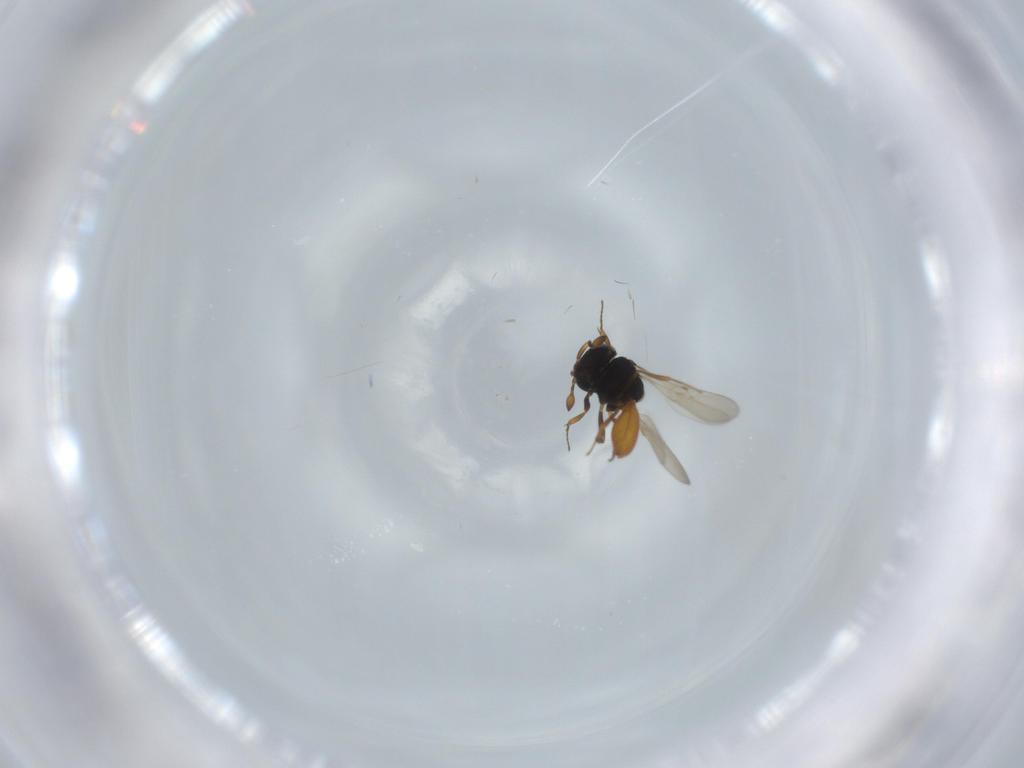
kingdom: Animalia
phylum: Arthropoda
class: Insecta
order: Hymenoptera
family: Scelionidae
